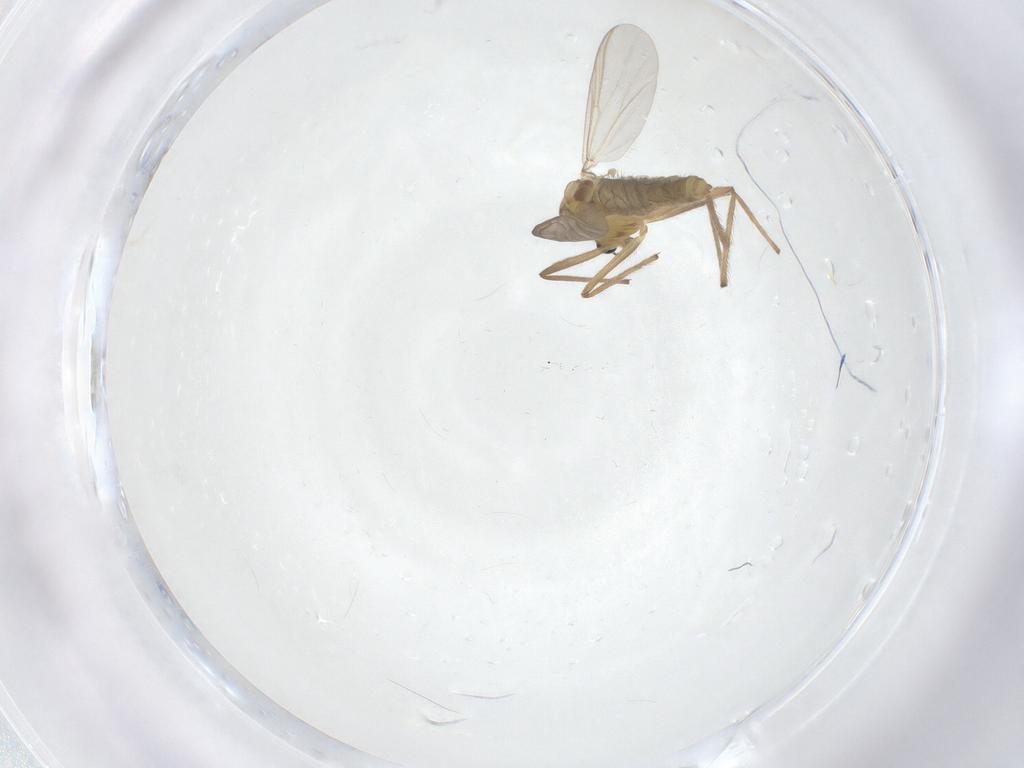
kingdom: Animalia
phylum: Arthropoda
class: Insecta
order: Diptera
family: Chironomidae
